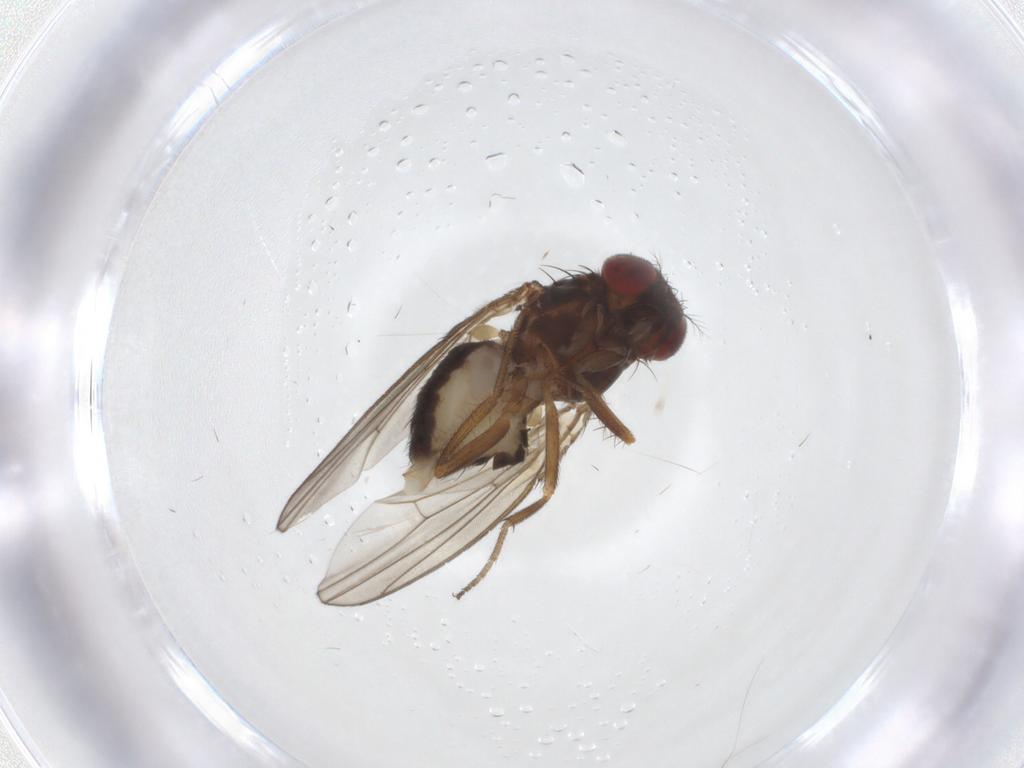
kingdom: Animalia
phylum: Arthropoda
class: Insecta
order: Diptera
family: Drosophilidae
